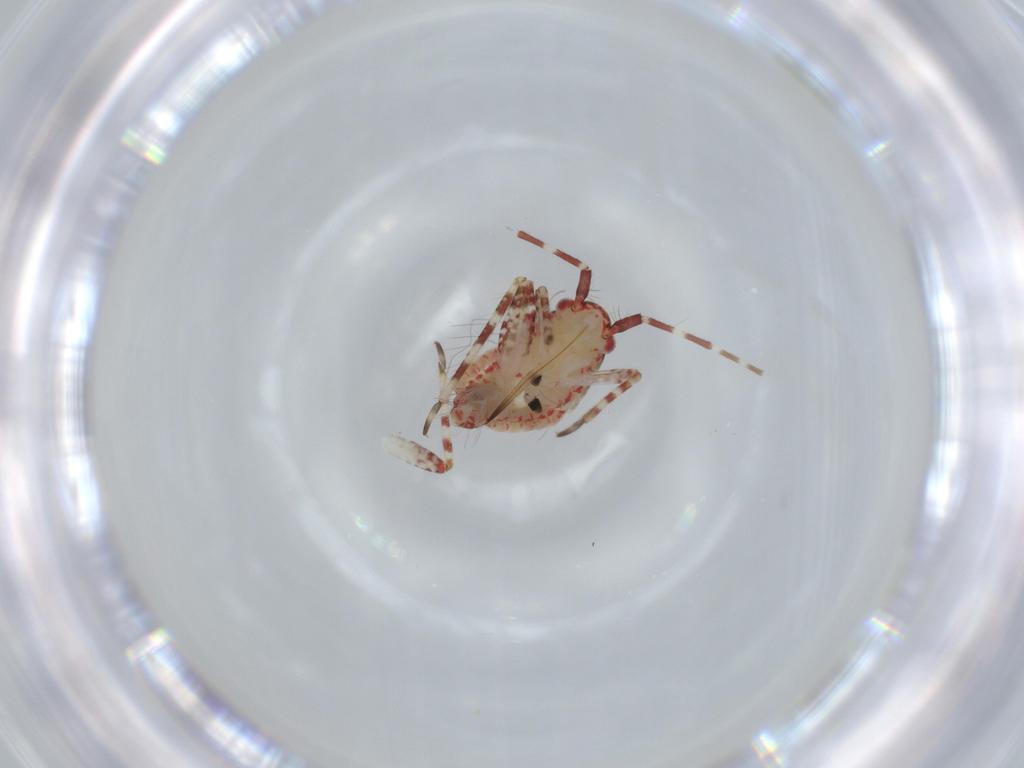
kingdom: Animalia
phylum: Arthropoda
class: Insecta
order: Hemiptera
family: Miridae
